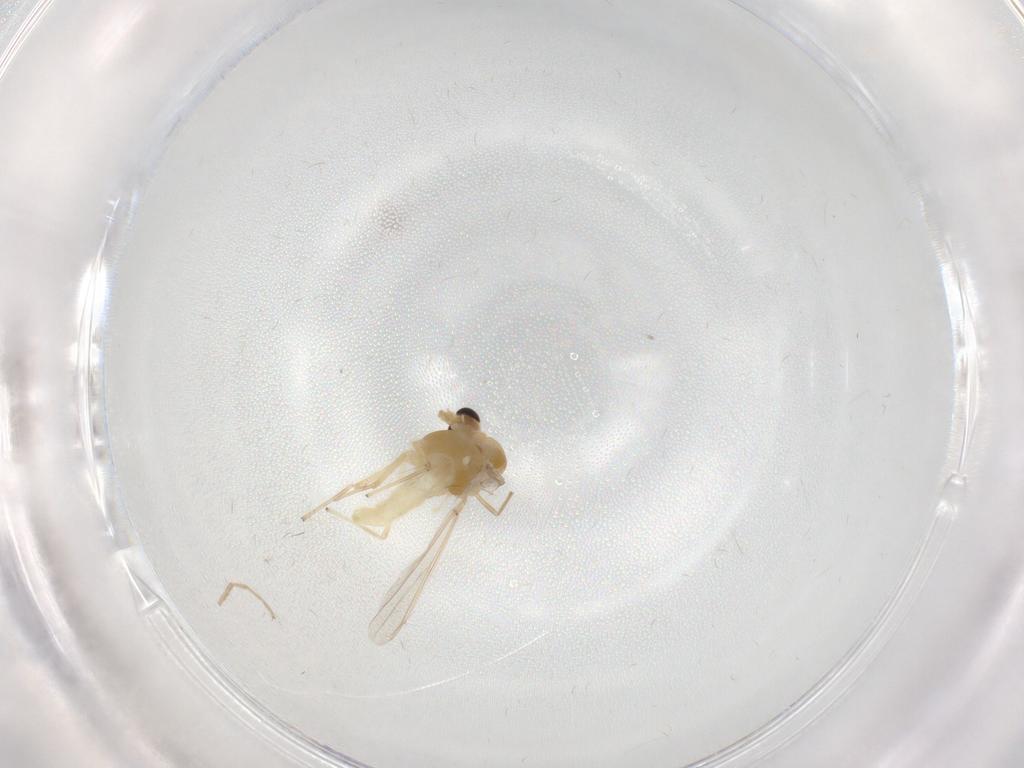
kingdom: Animalia
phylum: Arthropoda
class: Insecta
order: Diptera
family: Chironomidae
